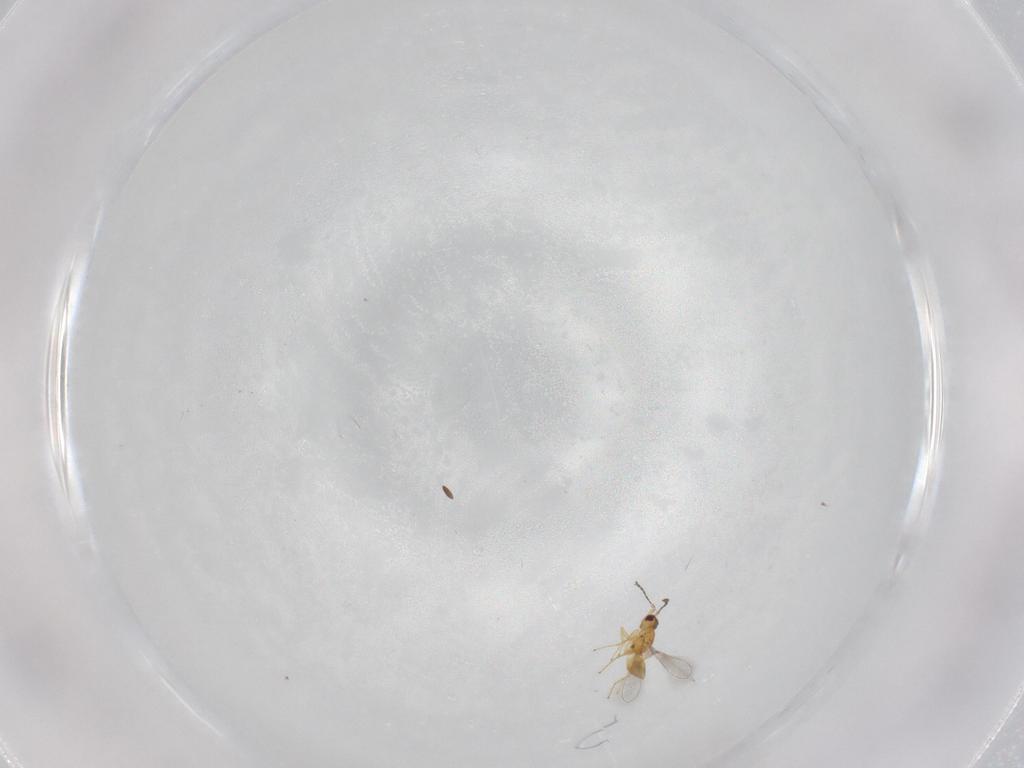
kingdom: Animalia
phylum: Arthropoda
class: Insecta
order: Hymenoptera
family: Mymaridae
